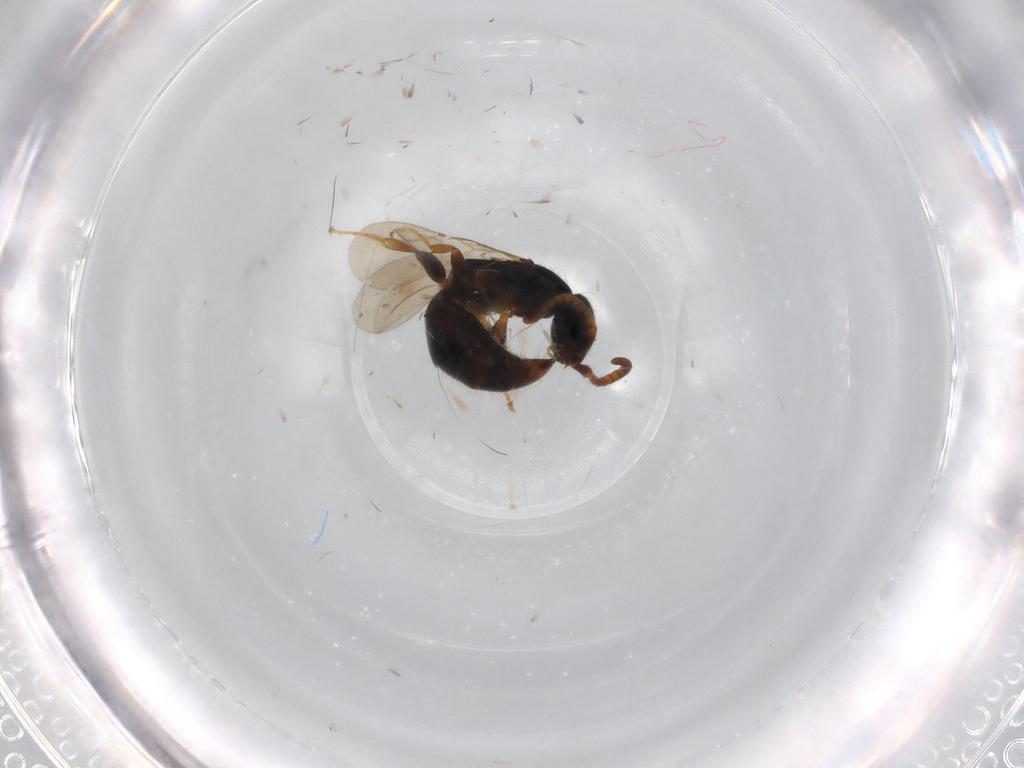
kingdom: Animalia
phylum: Arthropoda
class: Insecta
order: Hymenoptera
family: Bethylidae
